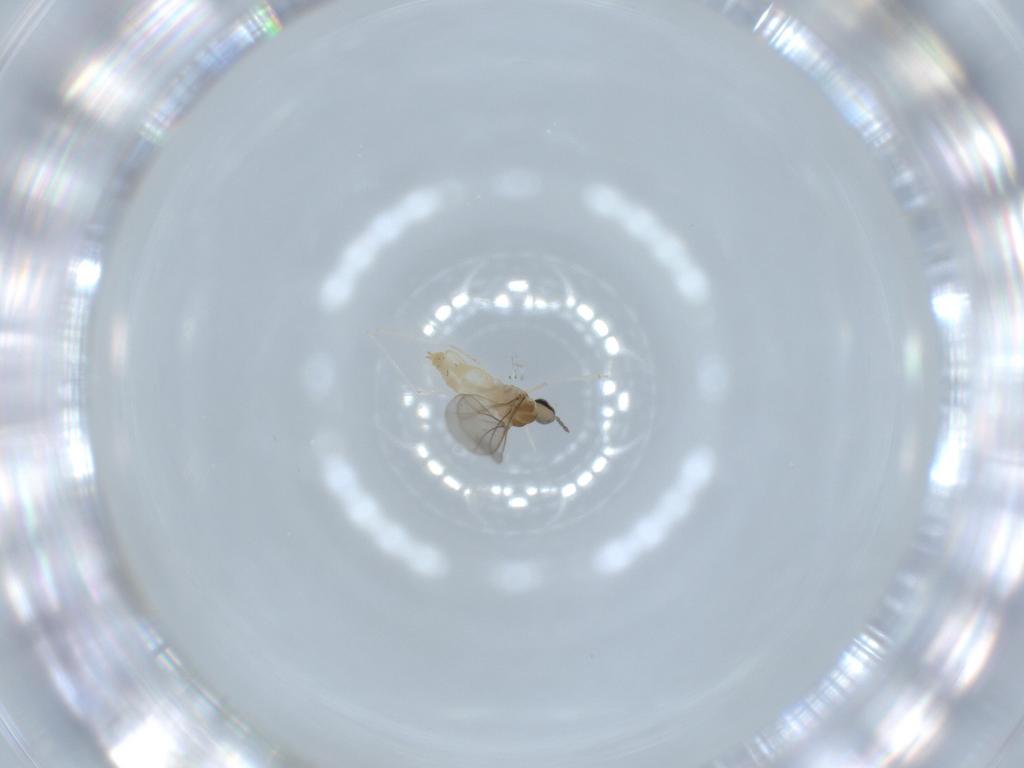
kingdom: Animalia
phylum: Arthropoda
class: Insecta
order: Diptera
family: Cecidomyiidae
